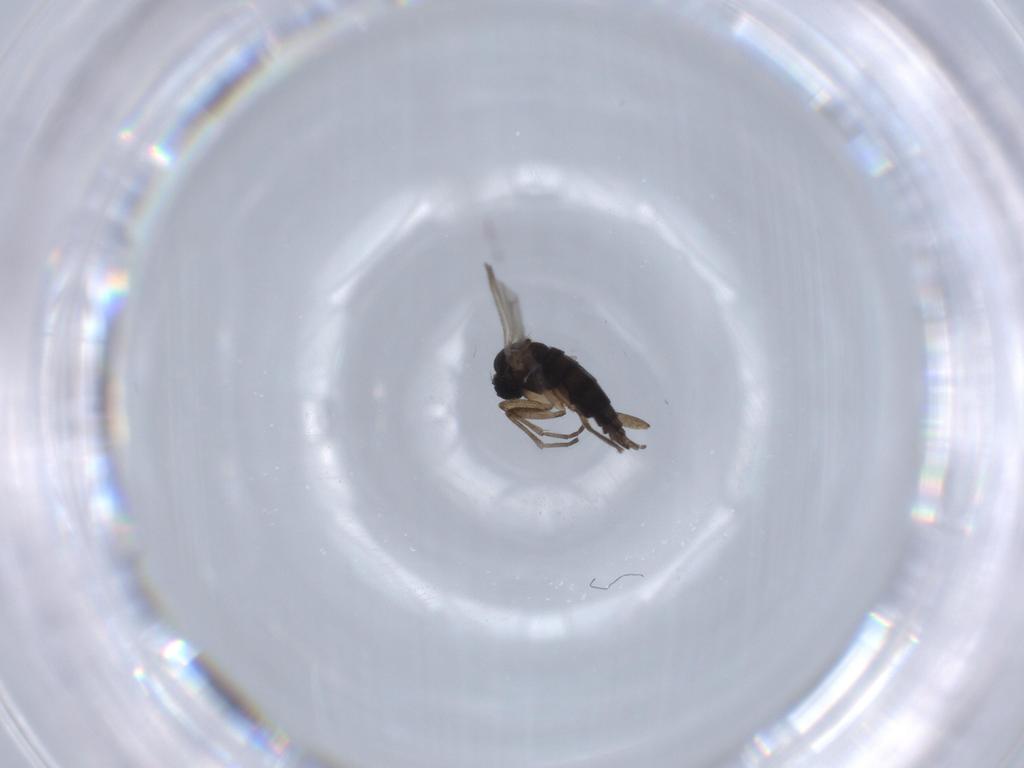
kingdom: Animalia
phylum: Arthropoda
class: Insecta
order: Diptera
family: Sciaridae
